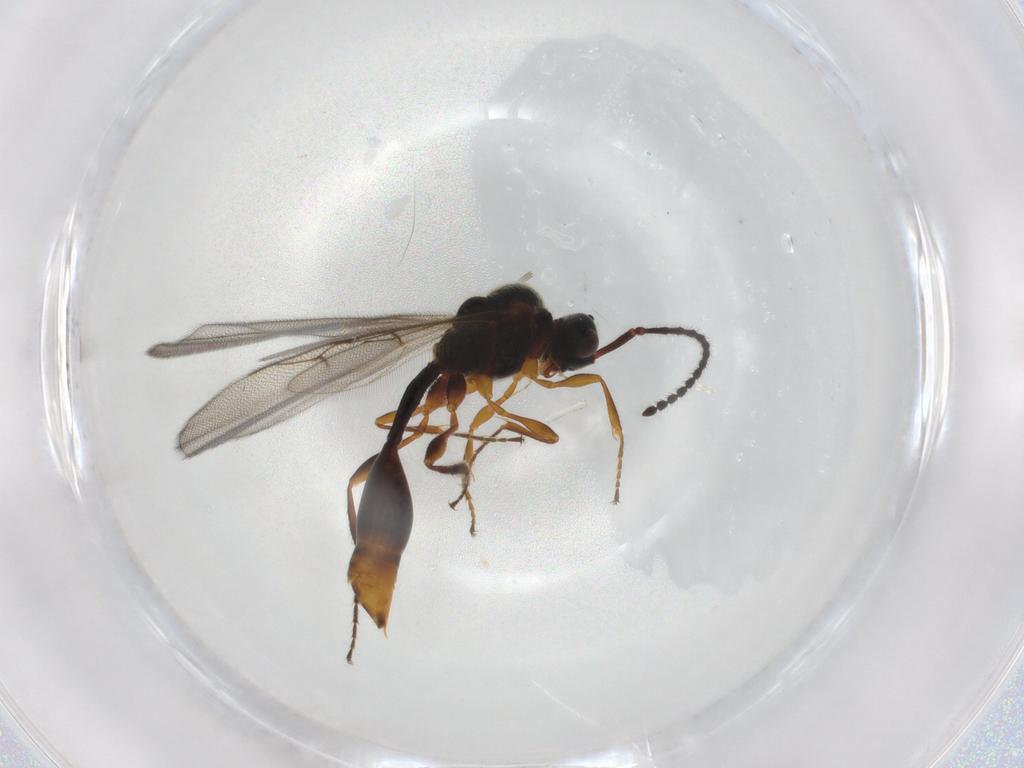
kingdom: Animalia
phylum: Arthropoda
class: Insecta
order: Hymenoptera
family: Diapriidae
